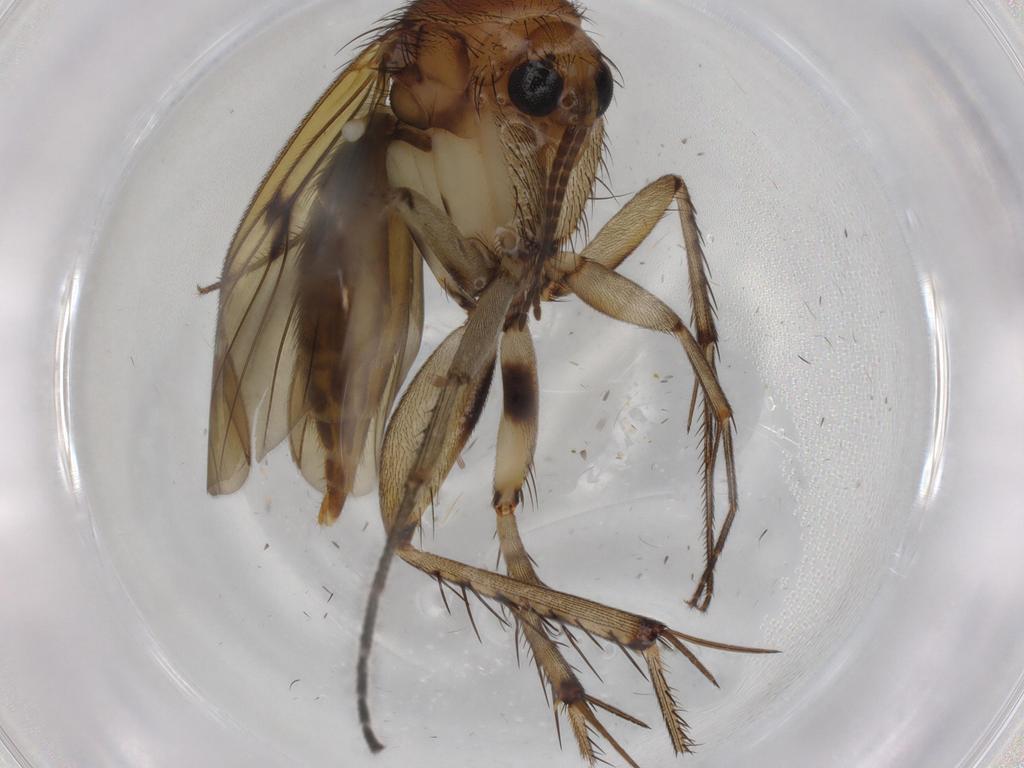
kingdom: Animalia
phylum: Arthropoda
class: Insecta
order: Diptera
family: Chironomidae
